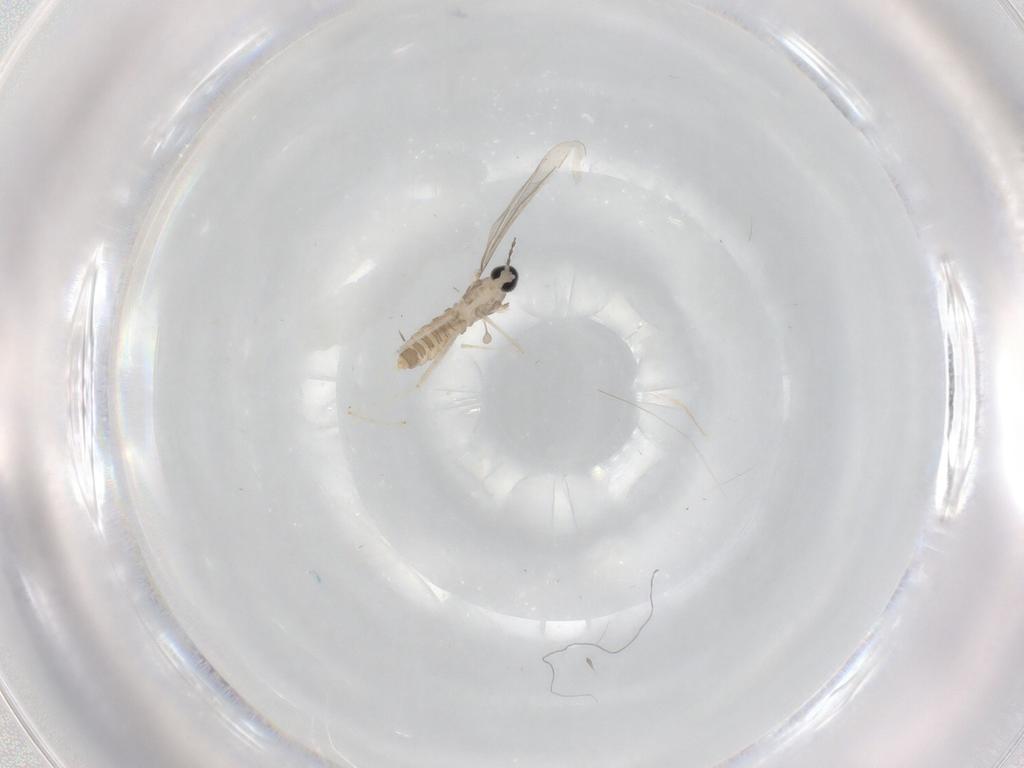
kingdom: Animalia
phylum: Arthropoda
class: Insecta
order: Diptera
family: Cecidomyiidae
